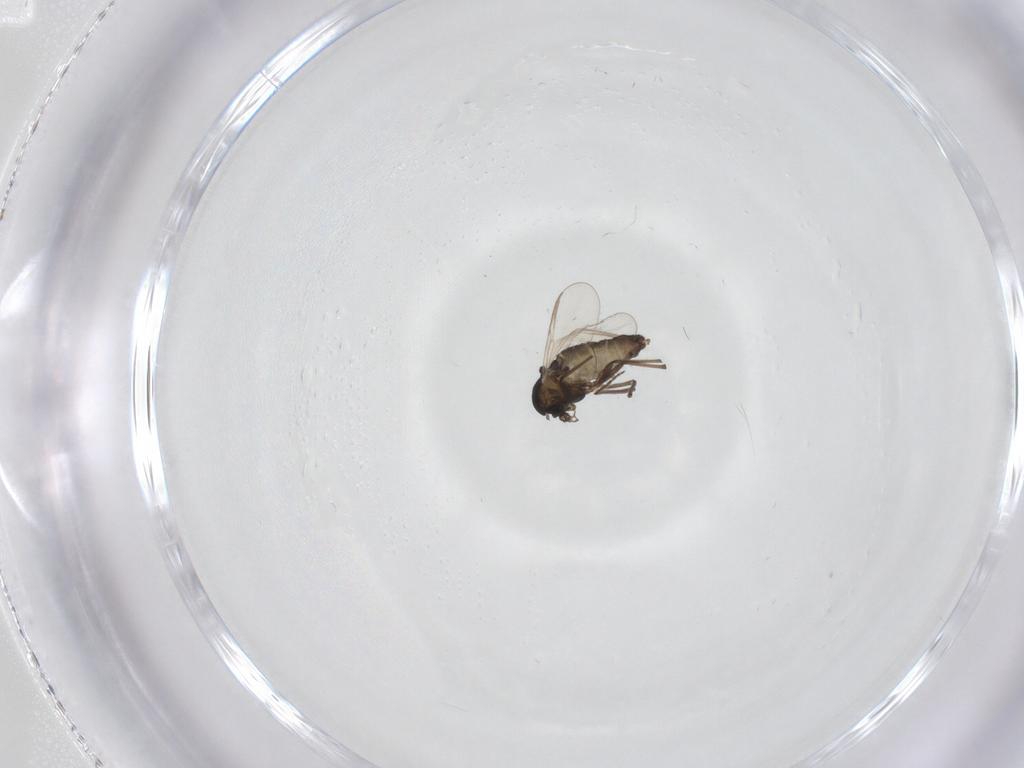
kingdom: Animalia
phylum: Arthropoda
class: Insecta
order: Diptera
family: Chironomidae
